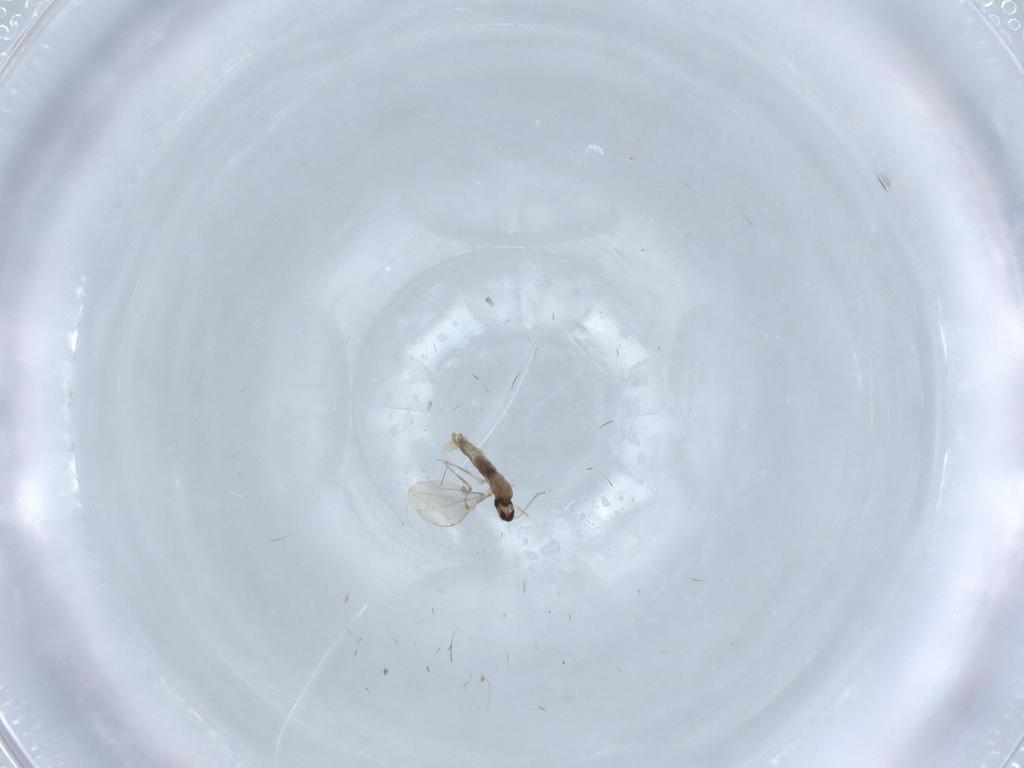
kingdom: Animalia
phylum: Arthropoda
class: Insecta
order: Diptera
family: Cecidomyiidae
